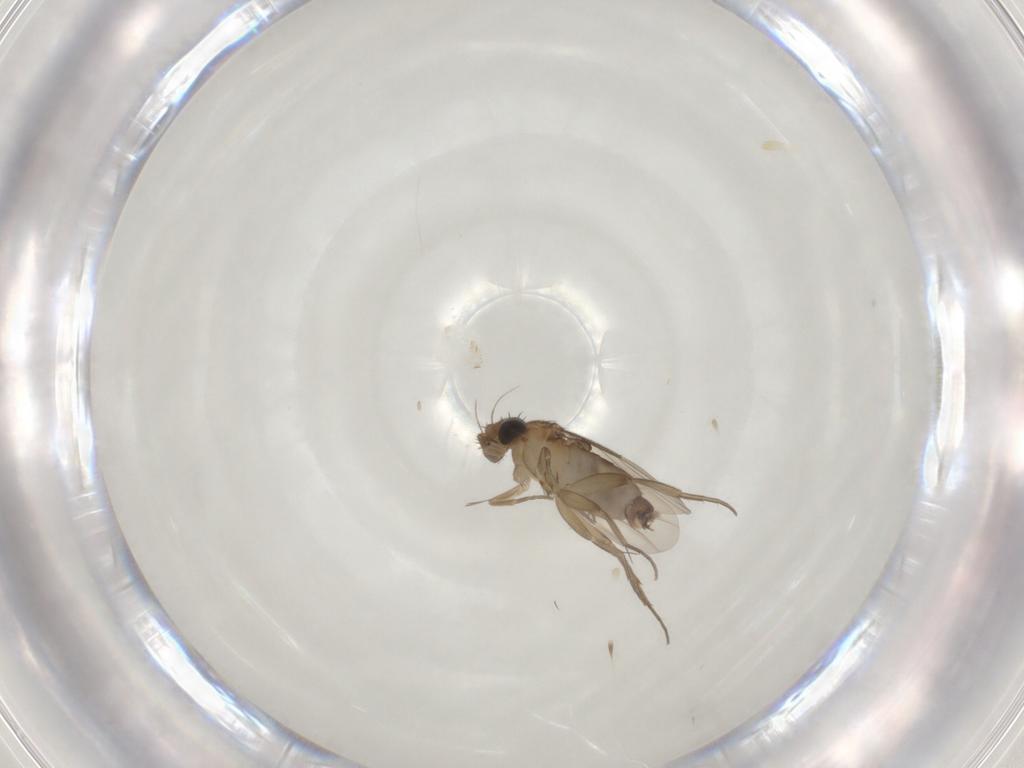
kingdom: Animalia
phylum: Arthropoda
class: Insecta
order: Diptera
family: Phoridae
